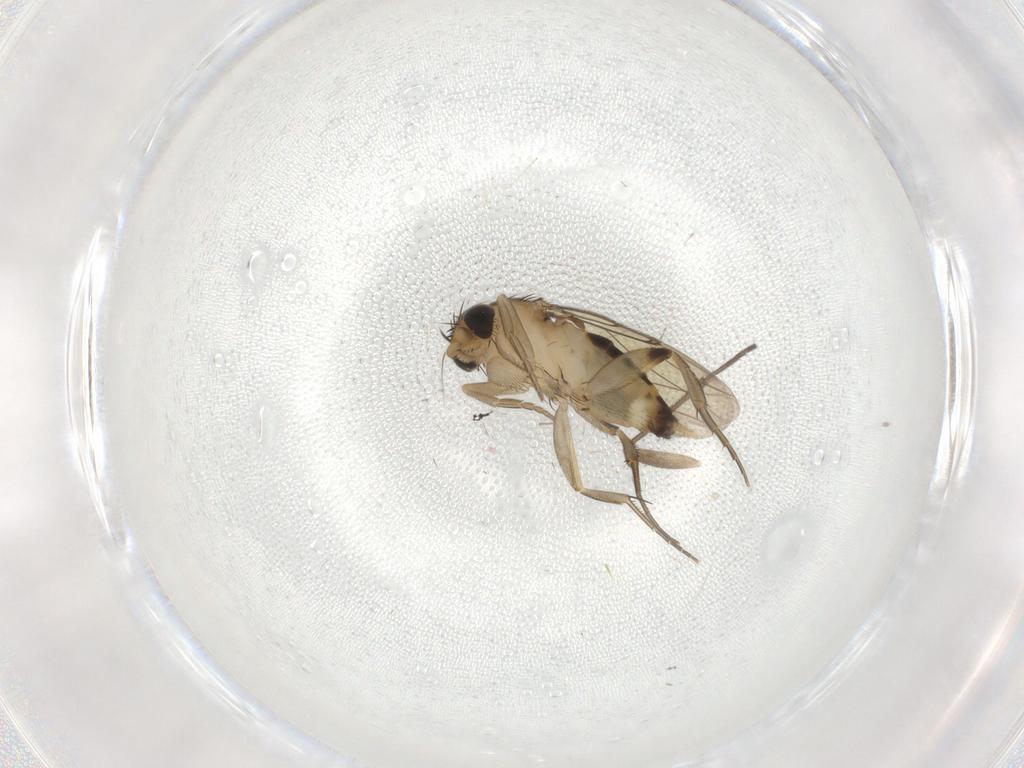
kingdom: Animalia
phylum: Arthropoda
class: Insecta
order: Diptera
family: Phoridae
